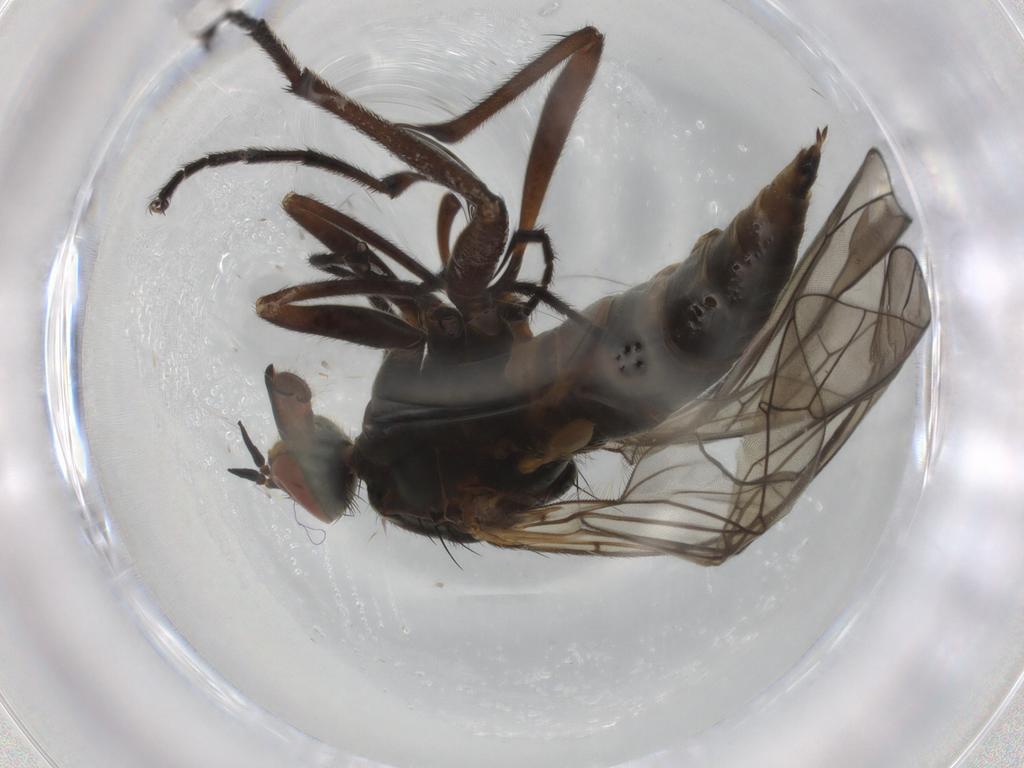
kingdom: Animalia
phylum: Arthropoda
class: Insecta
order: Diptera
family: Empididae
